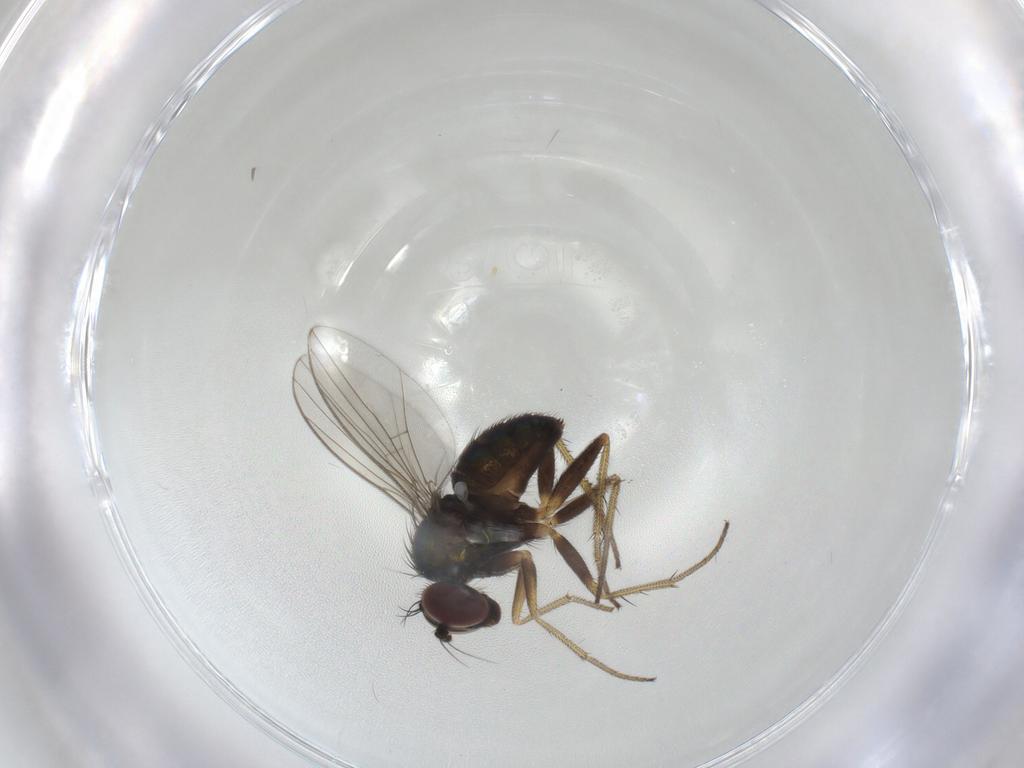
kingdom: Animalia
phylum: Arthropoda
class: Insecta
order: Diptera
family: Dolichopodidae
